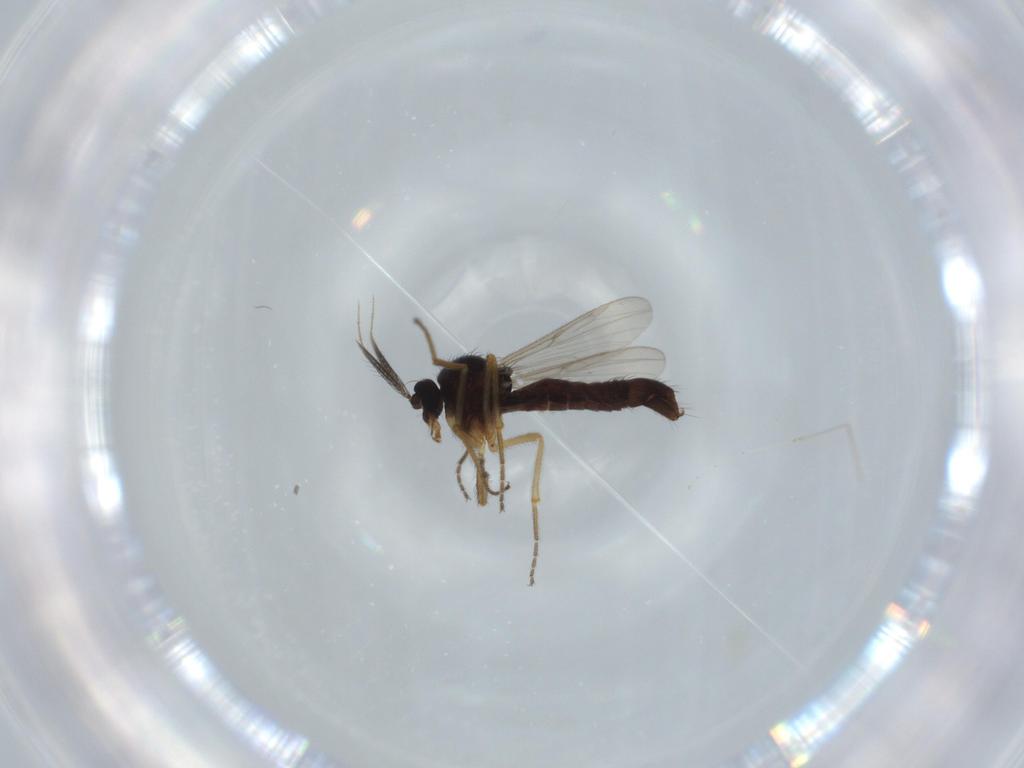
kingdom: Animalia
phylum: Arthropoda
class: Insecta
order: Diptera
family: Ceratopogonidae
